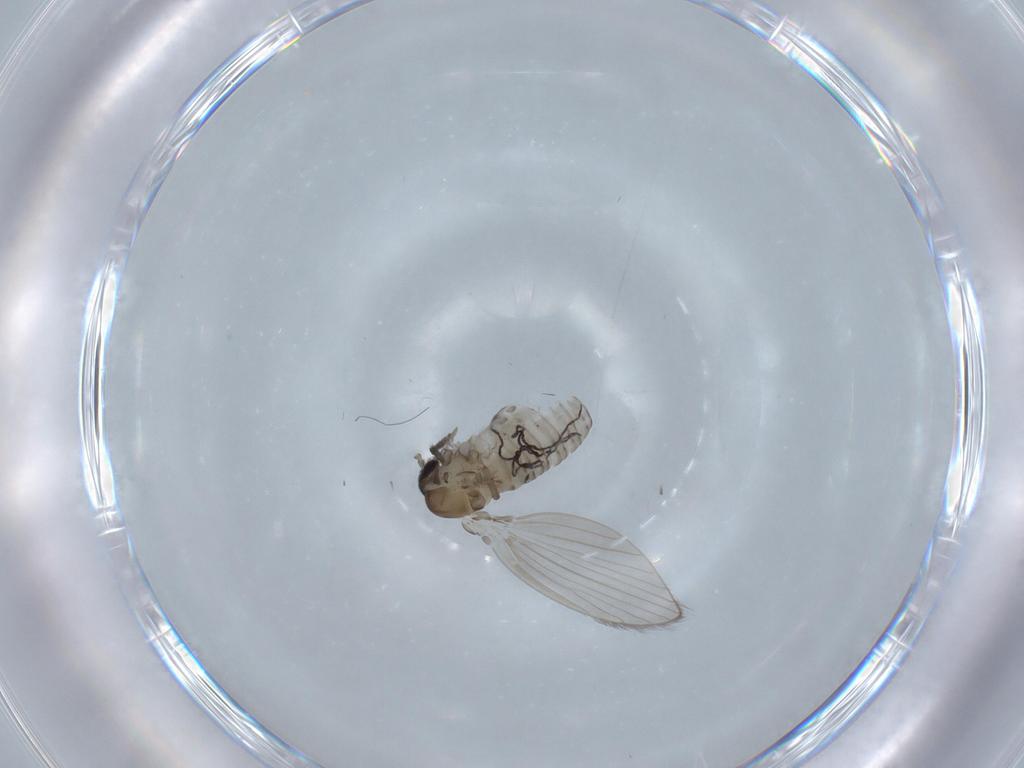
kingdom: Animalia
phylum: Arthropoda
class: Insecta
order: Diptera
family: Psychodidae
